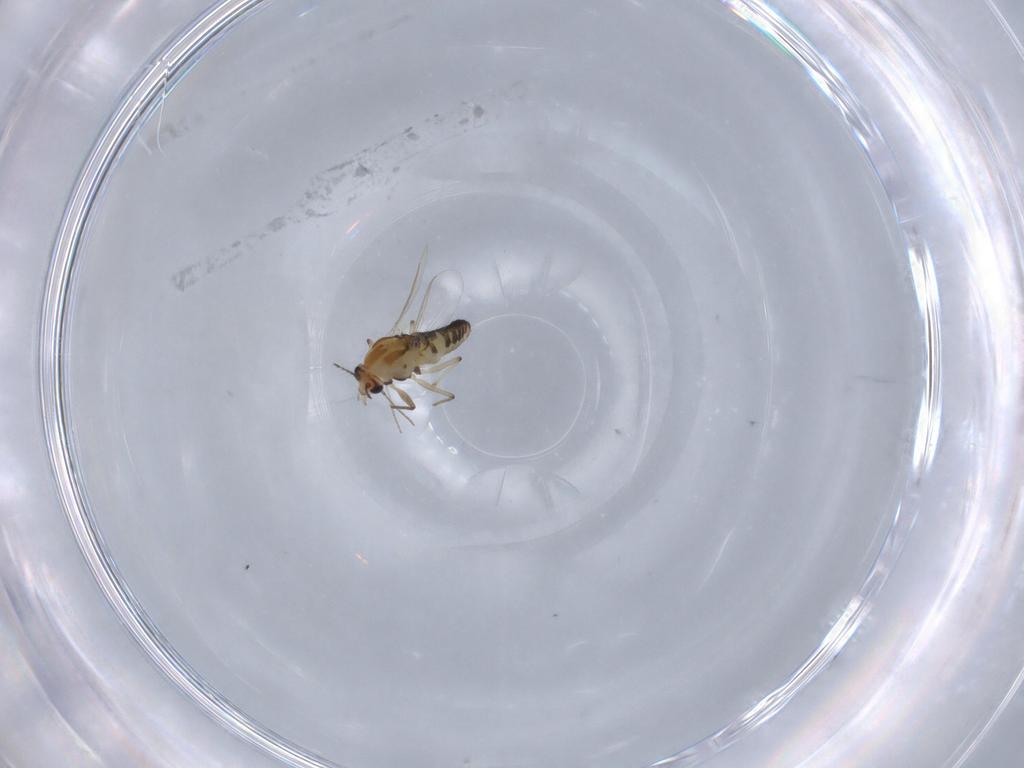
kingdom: Animalia
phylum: Arthropoda
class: Insecta
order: Diptera
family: Chironomidae
